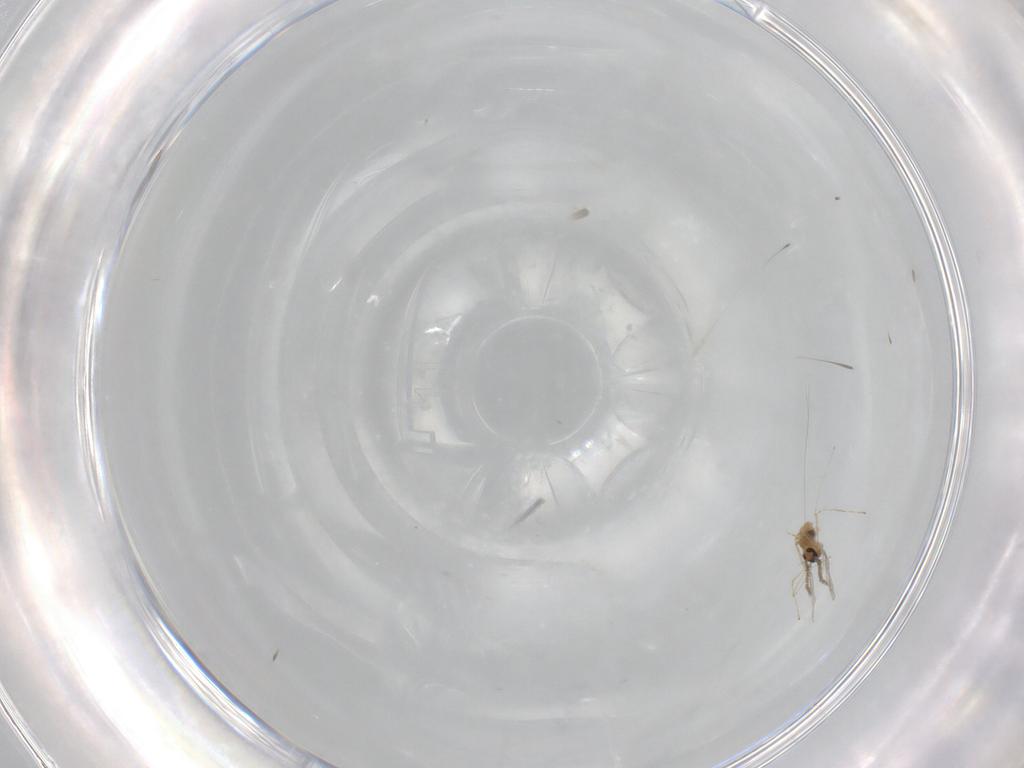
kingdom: Animalia
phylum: Arthropoda
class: Insecta
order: Diptera
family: Cecidomyiidae
